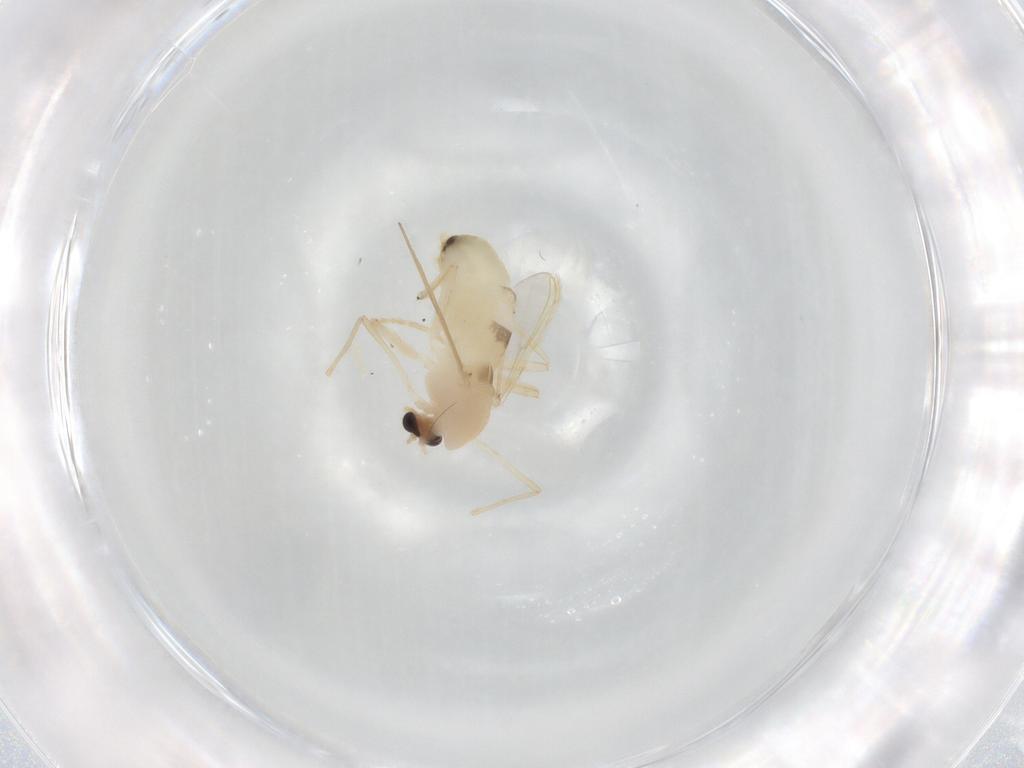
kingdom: Animalia
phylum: Arthropoda
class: Insecta
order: Diptera
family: Chironomidae
